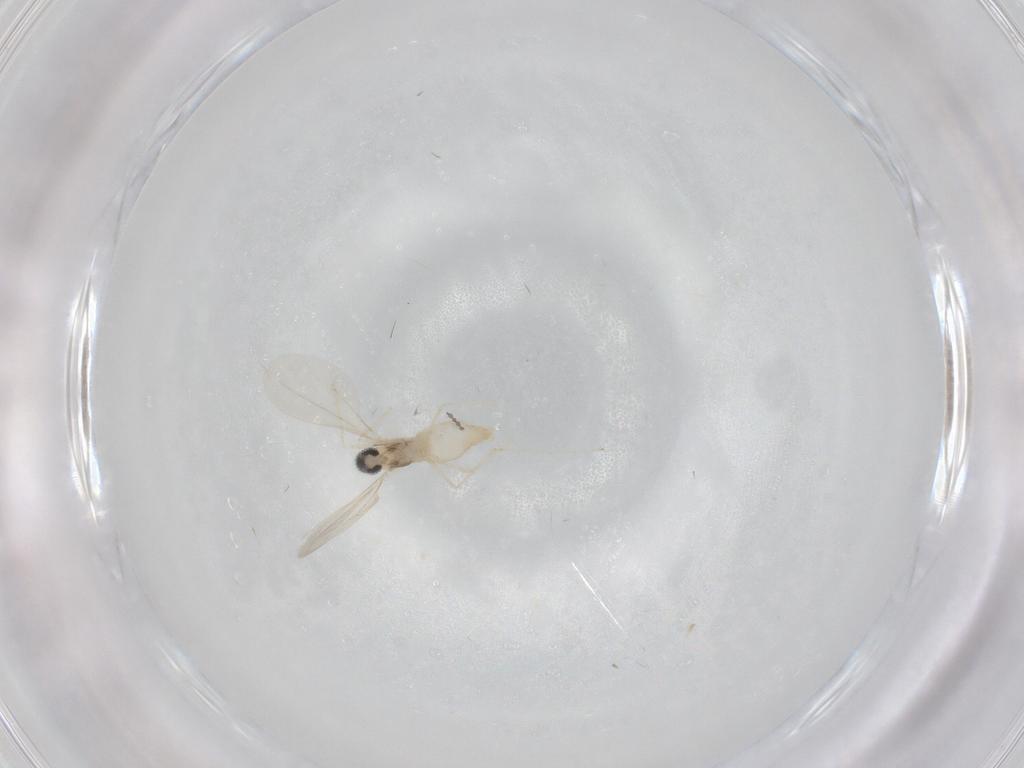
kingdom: Animalia
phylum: Arthropoda
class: Insecta
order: Diptera
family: Cecidomyiidae
